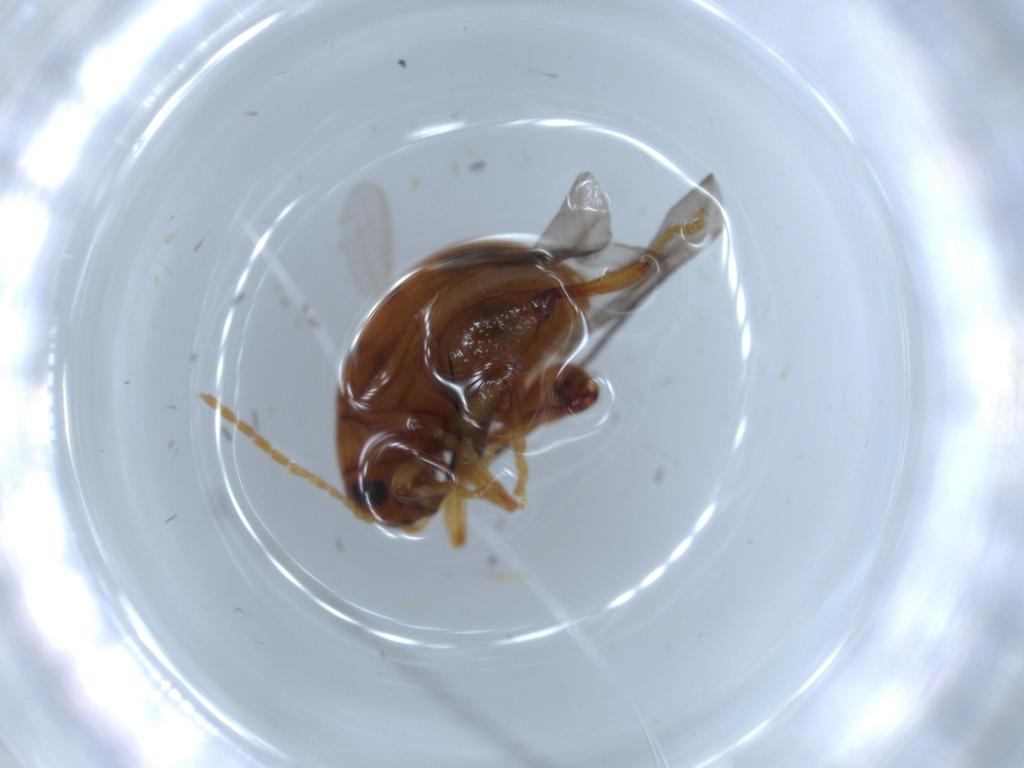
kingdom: Animalia
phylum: Arthropoda
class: Insecta
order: Coleoptera
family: Chrysomelidae
